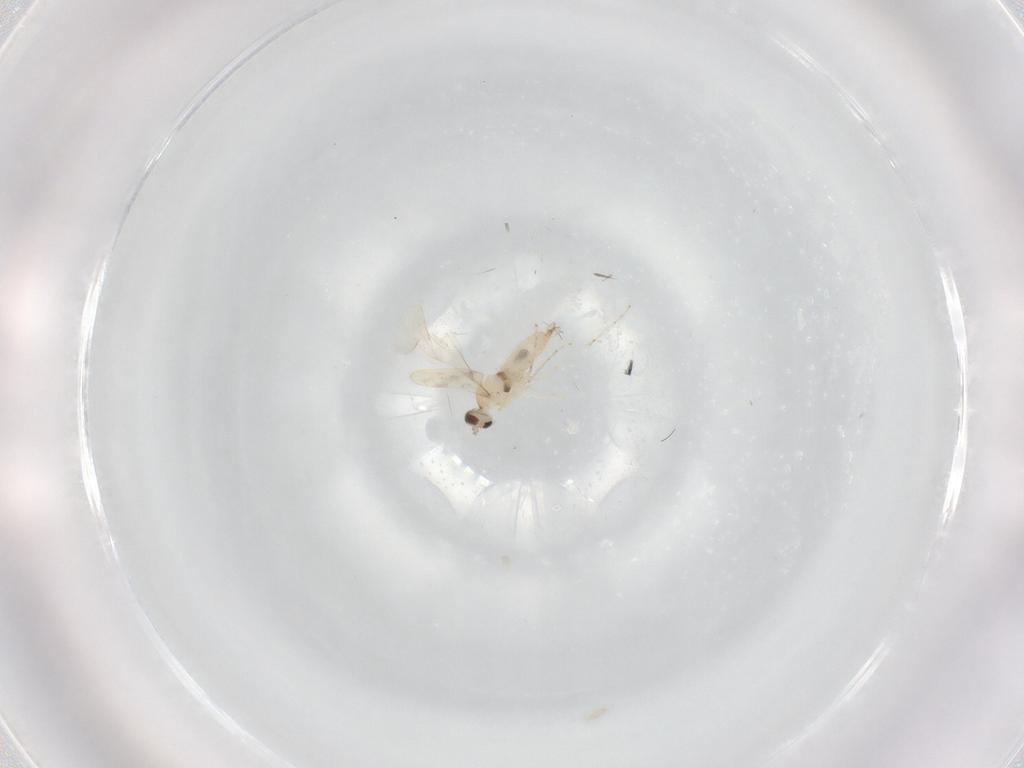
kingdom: Animalia
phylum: Arthropoda
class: Insecta
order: Diptera
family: Cecidomyiidae
